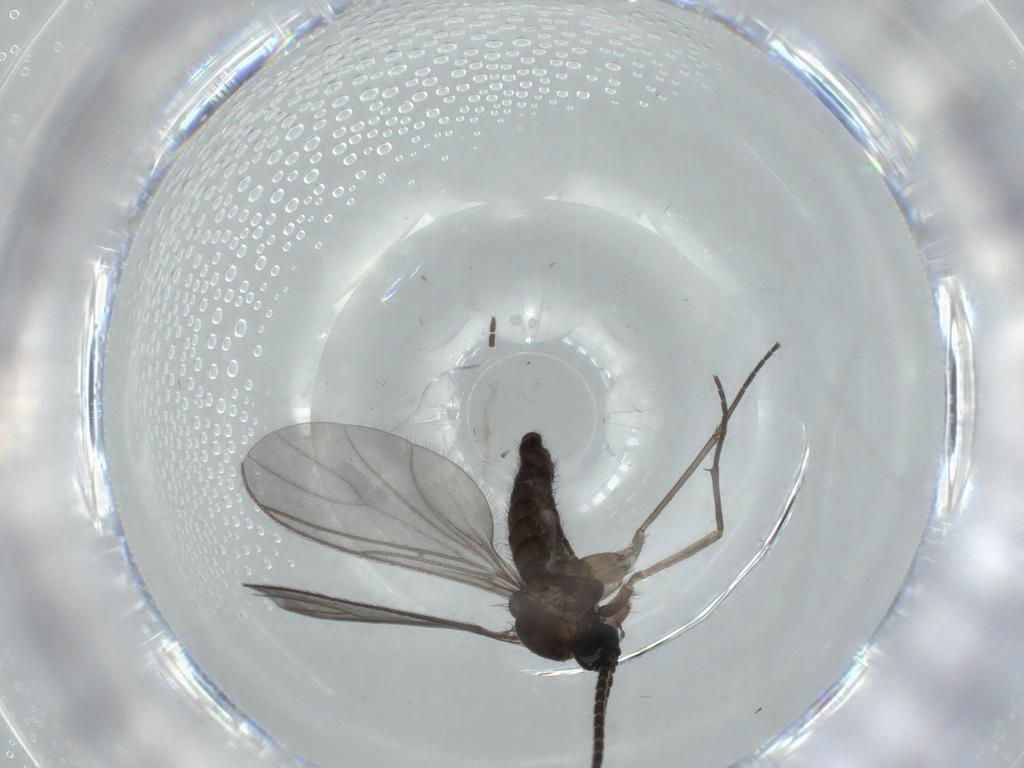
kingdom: Animalia
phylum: Arthropoda
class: Insecta
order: Diptera
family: Sciaridae
